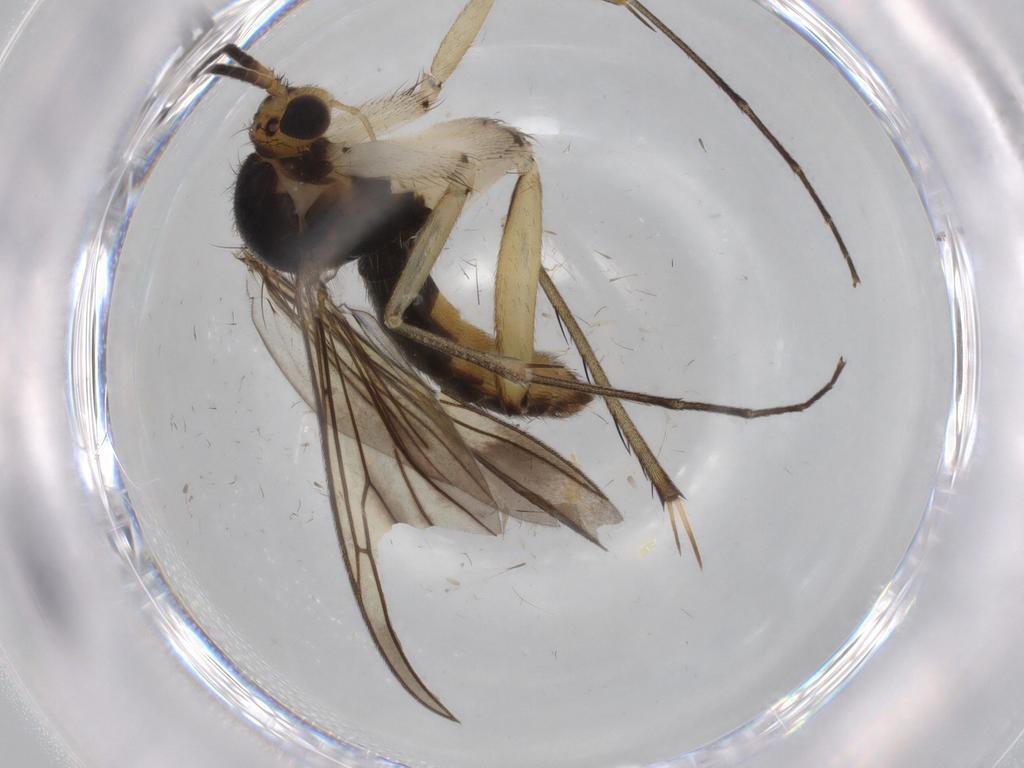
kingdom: Animalia
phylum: Arthropoda
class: Insecta
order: Diptera
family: Mycetophilidae
